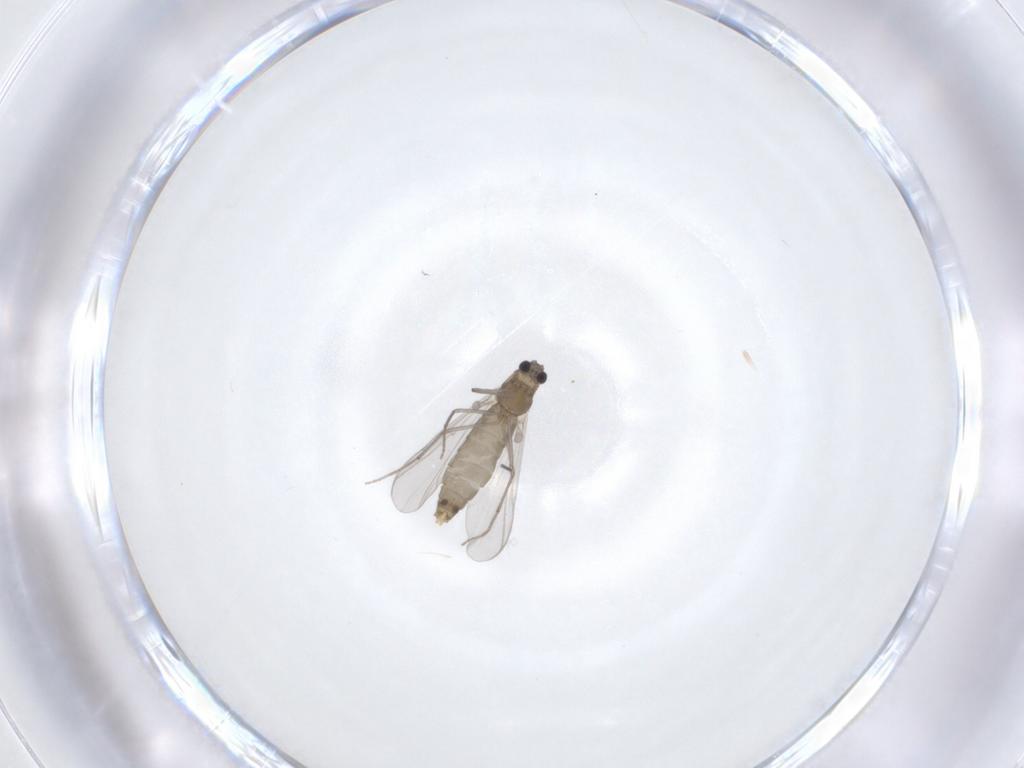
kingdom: Animalia
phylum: Arthropoda
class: Insecta
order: Diptera
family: Chironomidae
